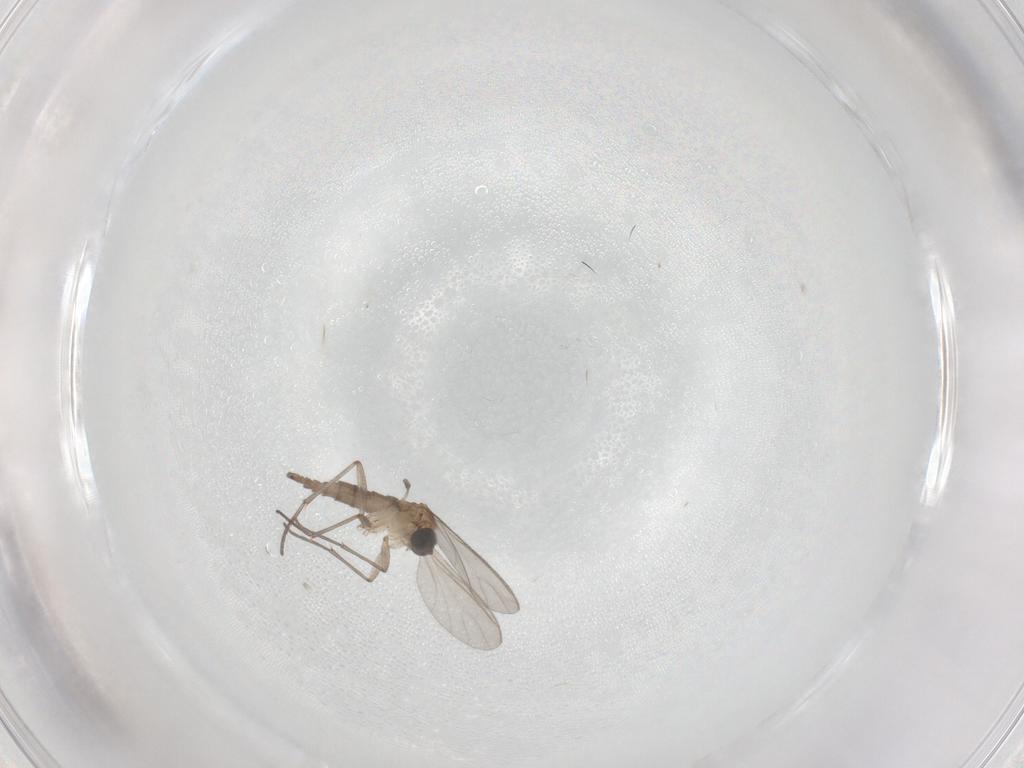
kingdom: Animalia
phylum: Arthropoda
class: Insecta
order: Diptera
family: Sciaridae
